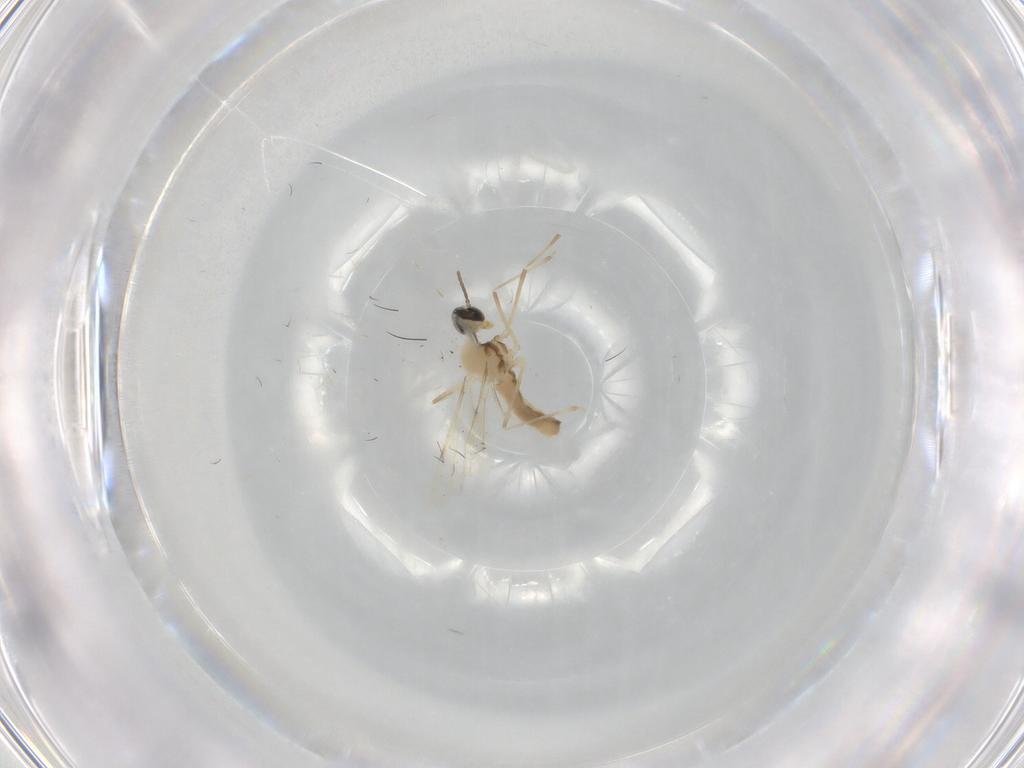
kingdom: Animalia
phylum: Arthropoda
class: Insecta
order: Diptera
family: Cecidomyiidae
